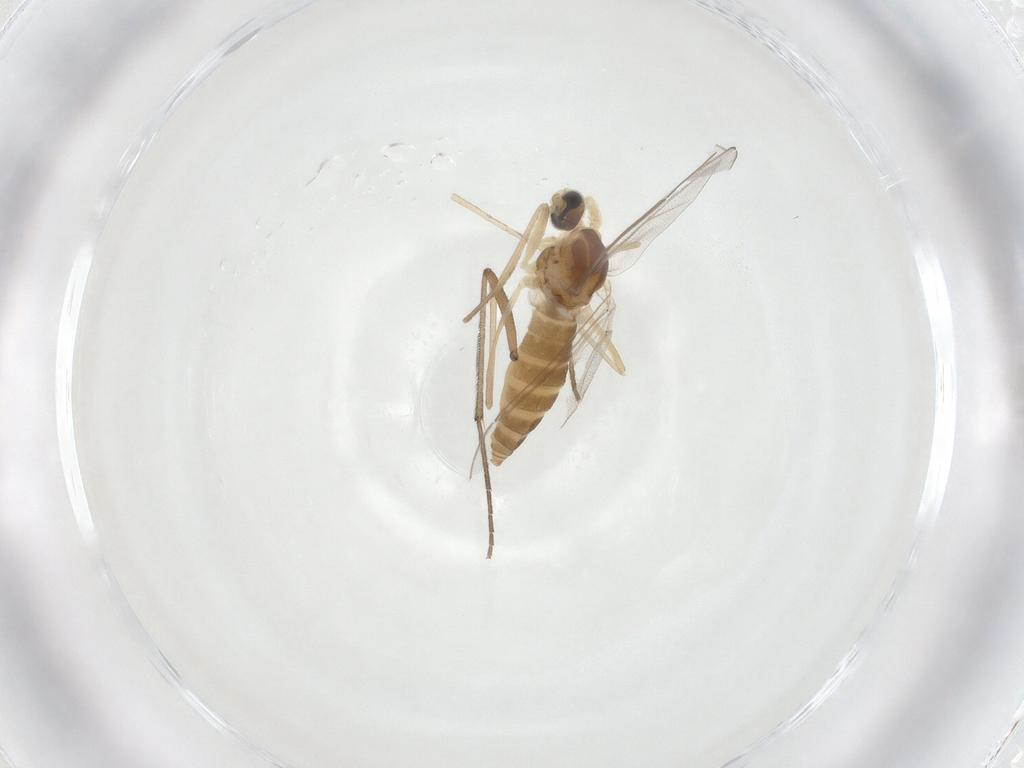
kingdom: Animalia
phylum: Arthropoda
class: Insecta
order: Diptera
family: Cecidomyiidae
